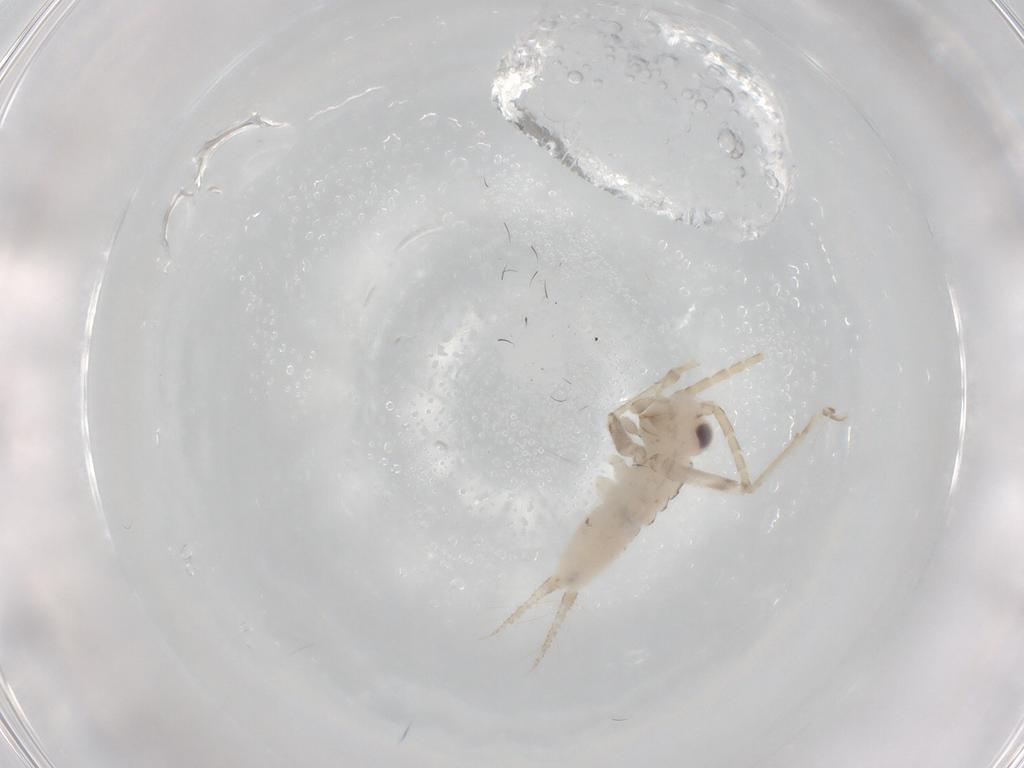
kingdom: Animalia
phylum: Arthropoda
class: Insecta
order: Orthoptera
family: Trigonidiidae
